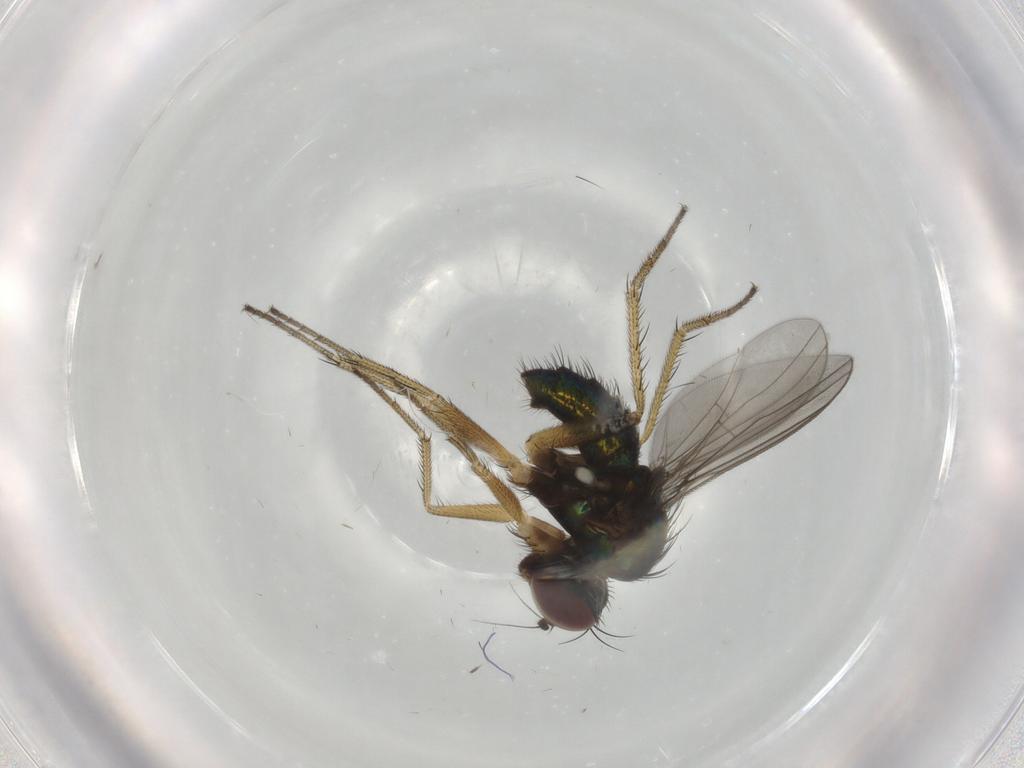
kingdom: Animalia
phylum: Arthropoda
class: Insecta
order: Diptera
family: Dolichopodidae
